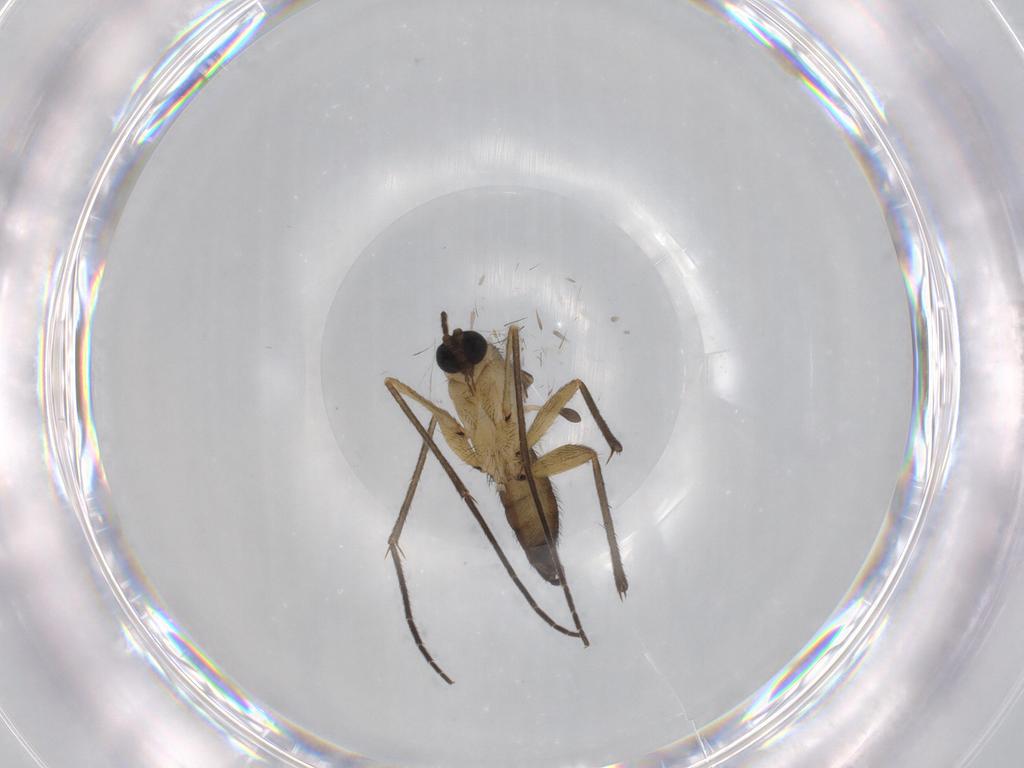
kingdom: Animalia
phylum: Arthropoda
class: Insecta
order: Diptera
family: Sciaridae
